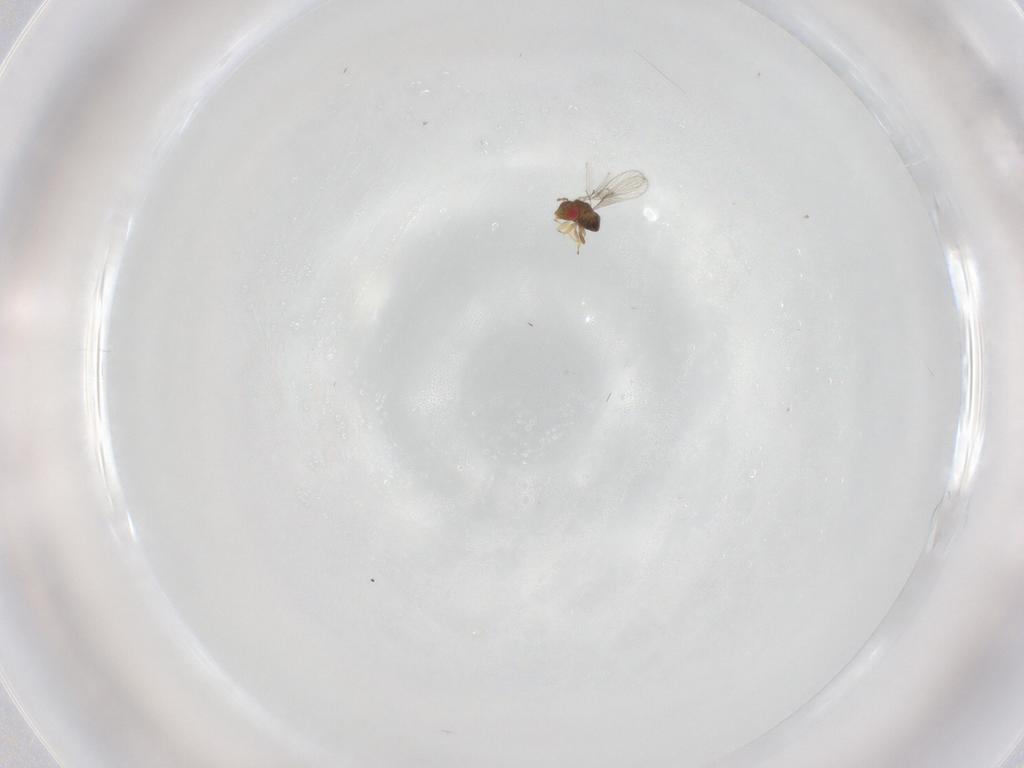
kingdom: Animalia
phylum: Arthropoda
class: Insecta
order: Hymenoptera
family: Trichogrammatidae
